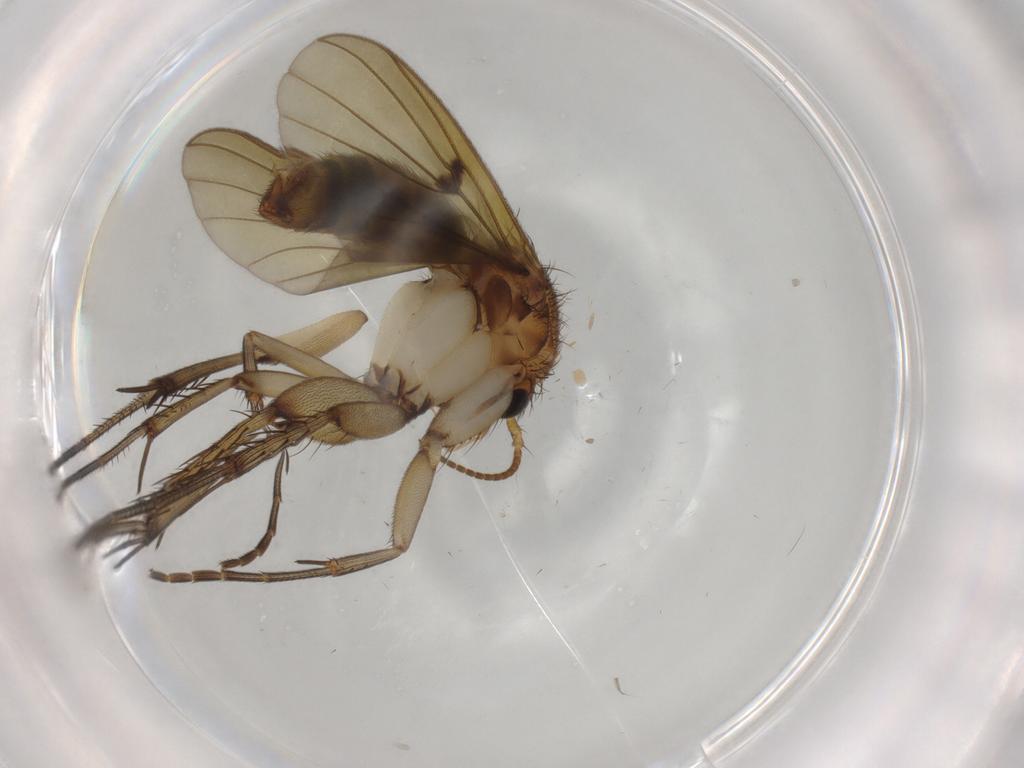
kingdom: Animalia
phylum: Arthropoda
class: Insecta
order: Diptera
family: Mycetophilidae
